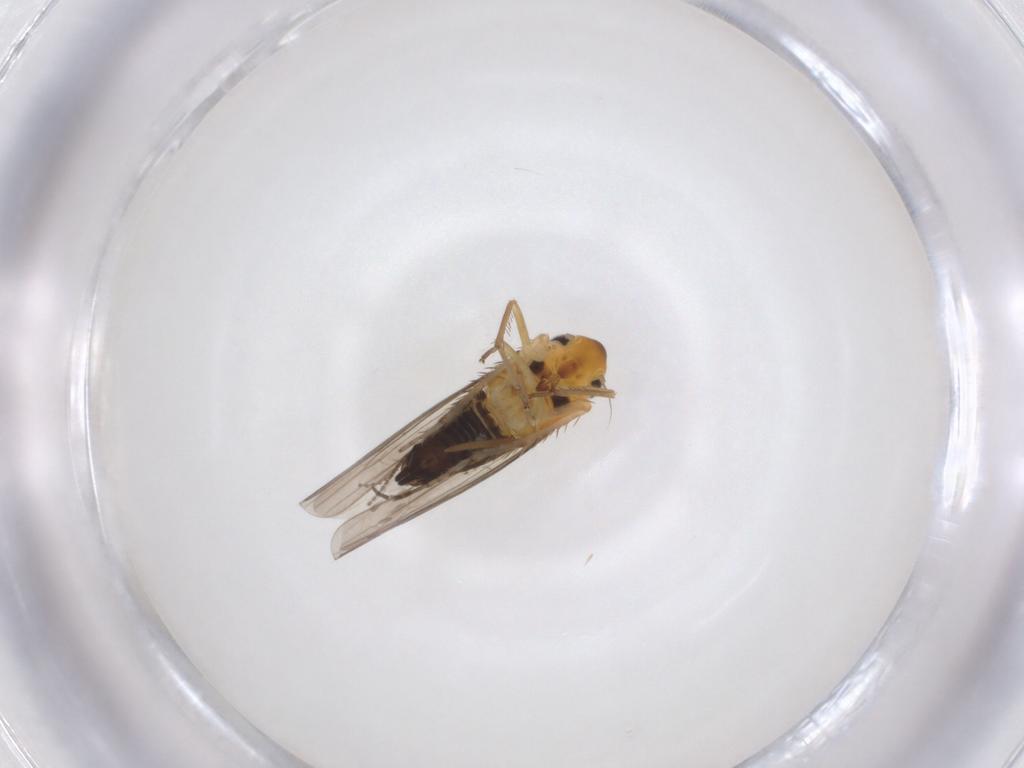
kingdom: Animalia
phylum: Arthropoda
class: Insecta
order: Hemiptera
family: Cicadellidae
